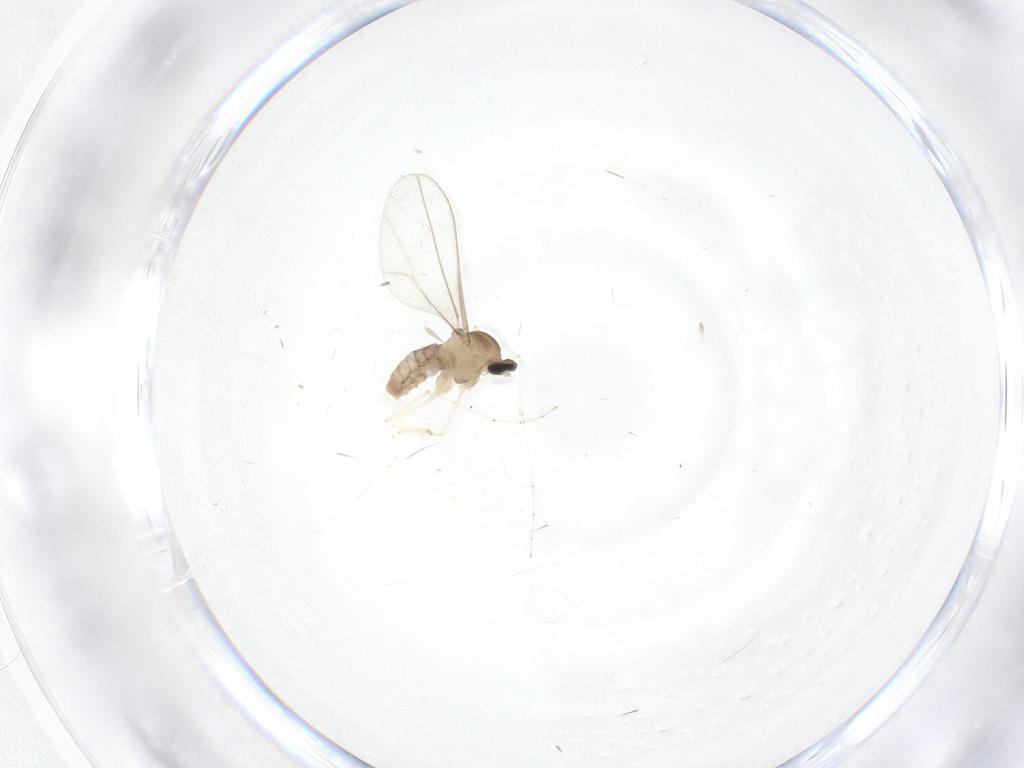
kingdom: Animalia
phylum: Arthropoda
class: Insecta
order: Diptera
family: Cecidomyiidae
